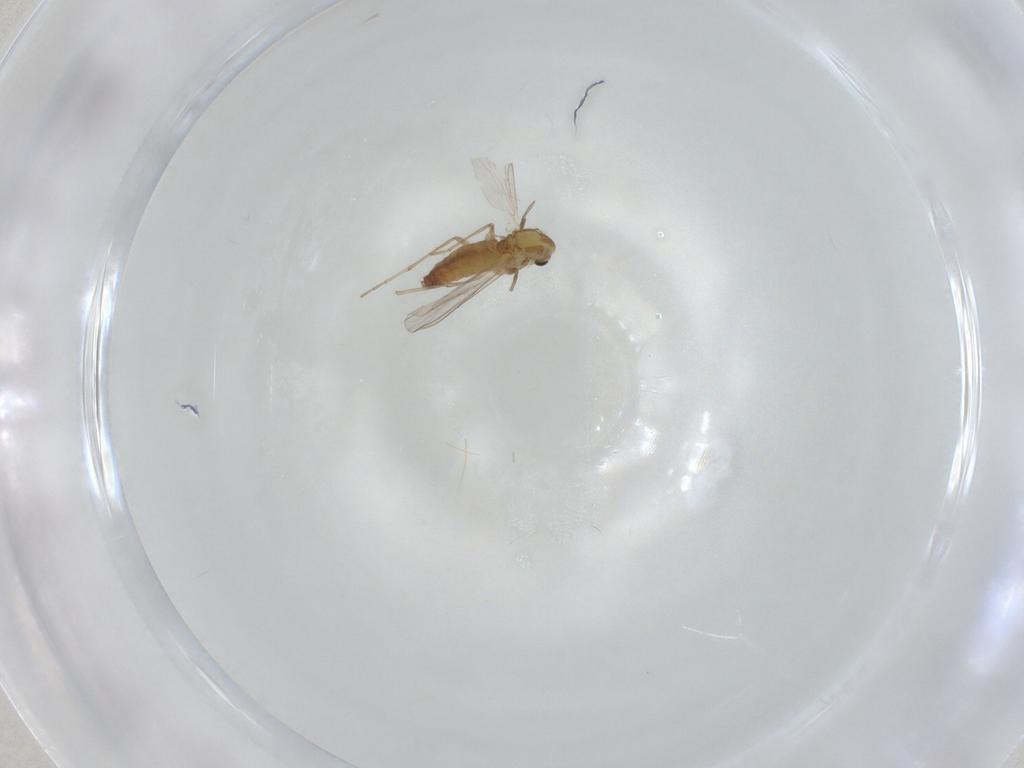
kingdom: Animalia
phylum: Arthropoda
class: Insecta
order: Diptera
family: Chironomidae
